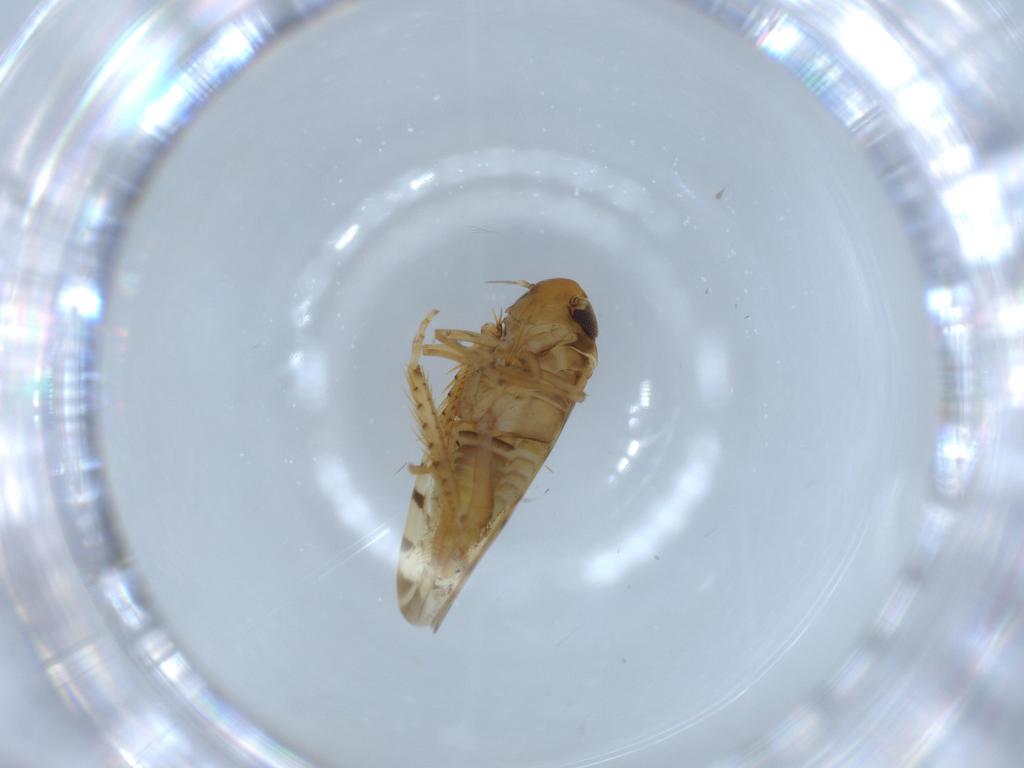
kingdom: Animalia
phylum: Arthropoda
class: Insecta
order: Hemiptera
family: Cicadellidae
